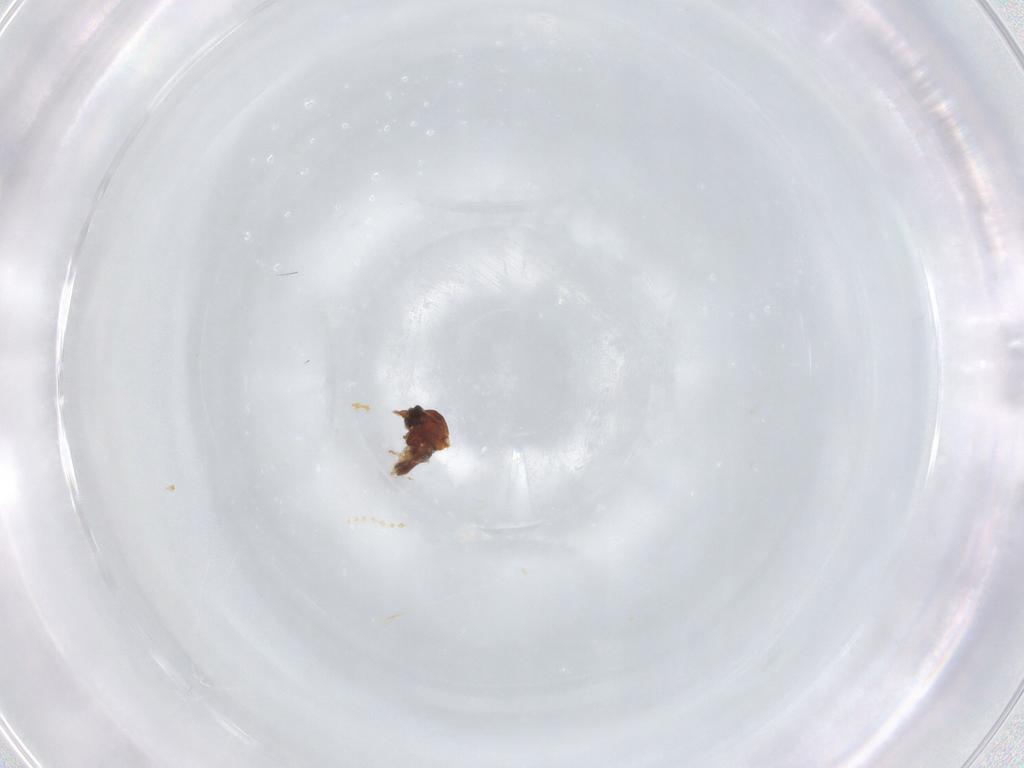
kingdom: Animalia
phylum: Arthropoda
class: Insecta
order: Diptera
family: Ceratopogonidae
